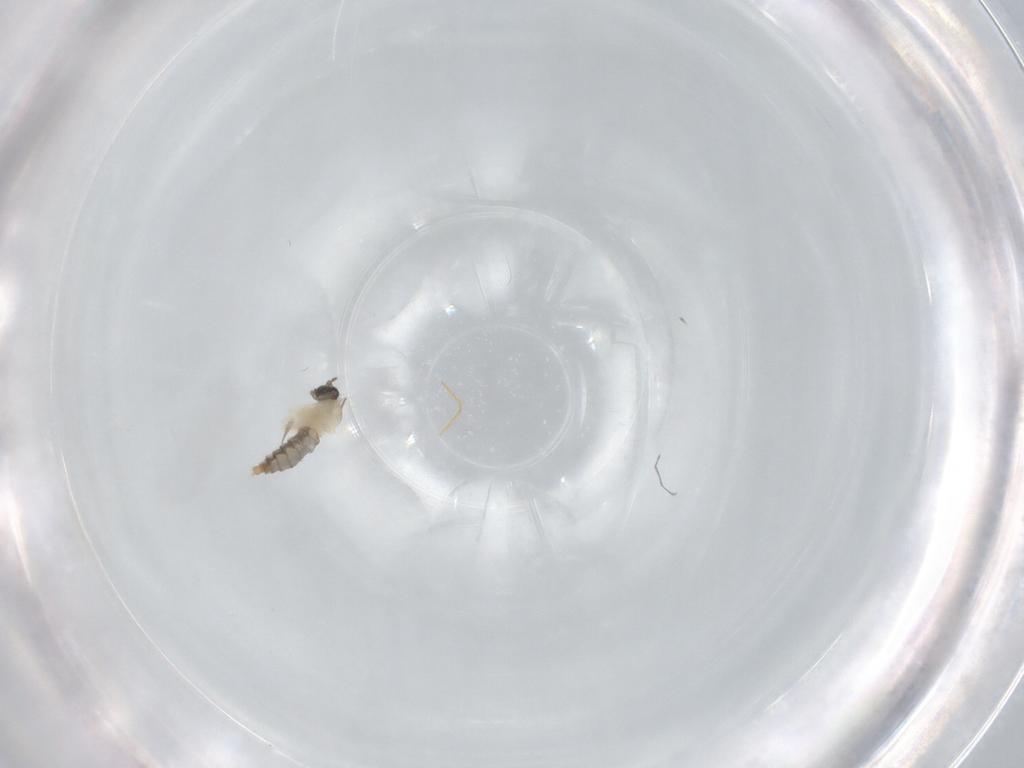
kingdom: Animalia
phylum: Arthropoda
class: Insecta
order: Diptera
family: Mycetophilidae
